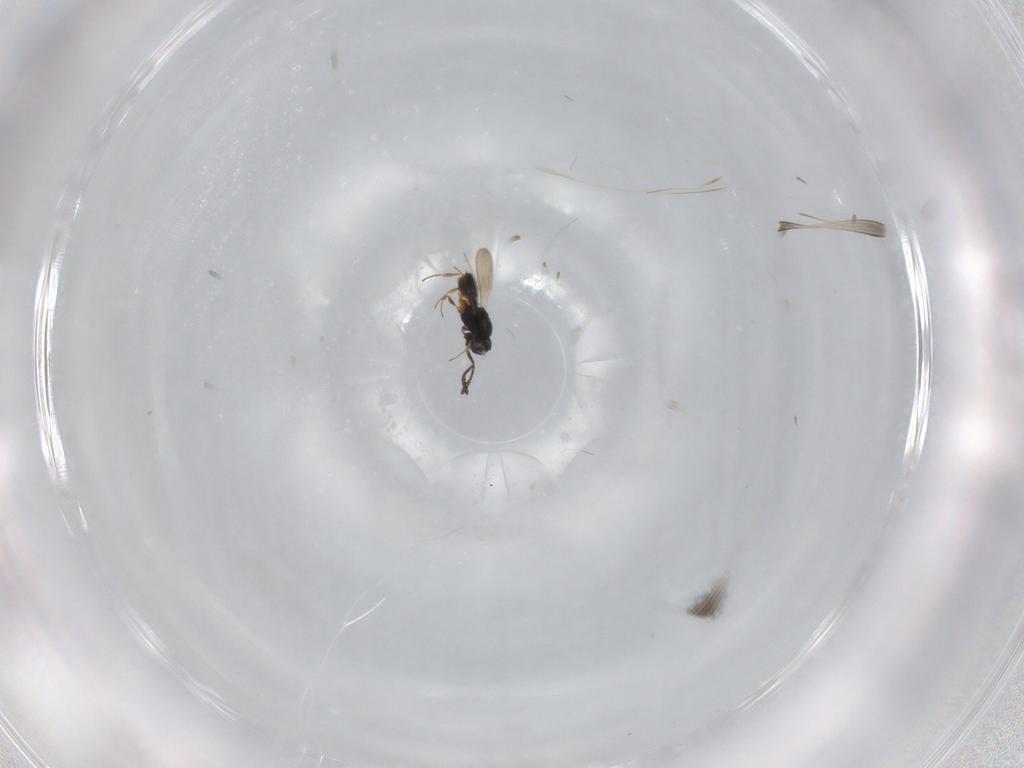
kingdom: Animalia
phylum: Arthropoda
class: Insecta
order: Hymenoptera
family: Scelionidae
